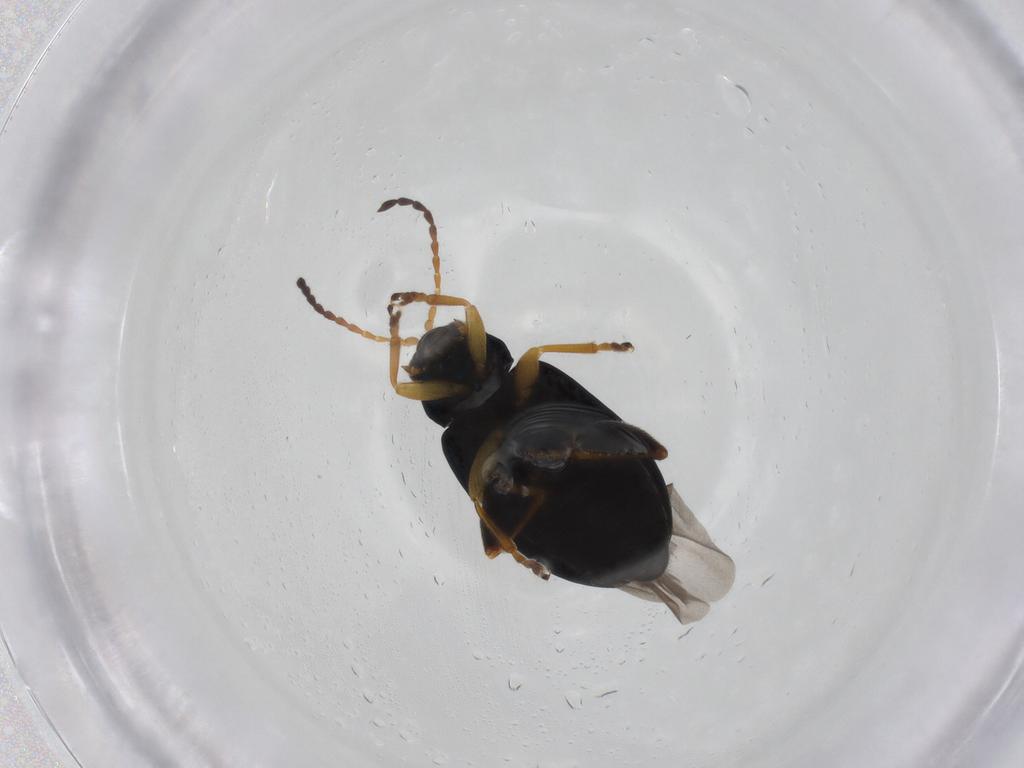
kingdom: Animalia
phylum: Arthropoda
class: Insecta
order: Coleoptera
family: Chrysomelidae
